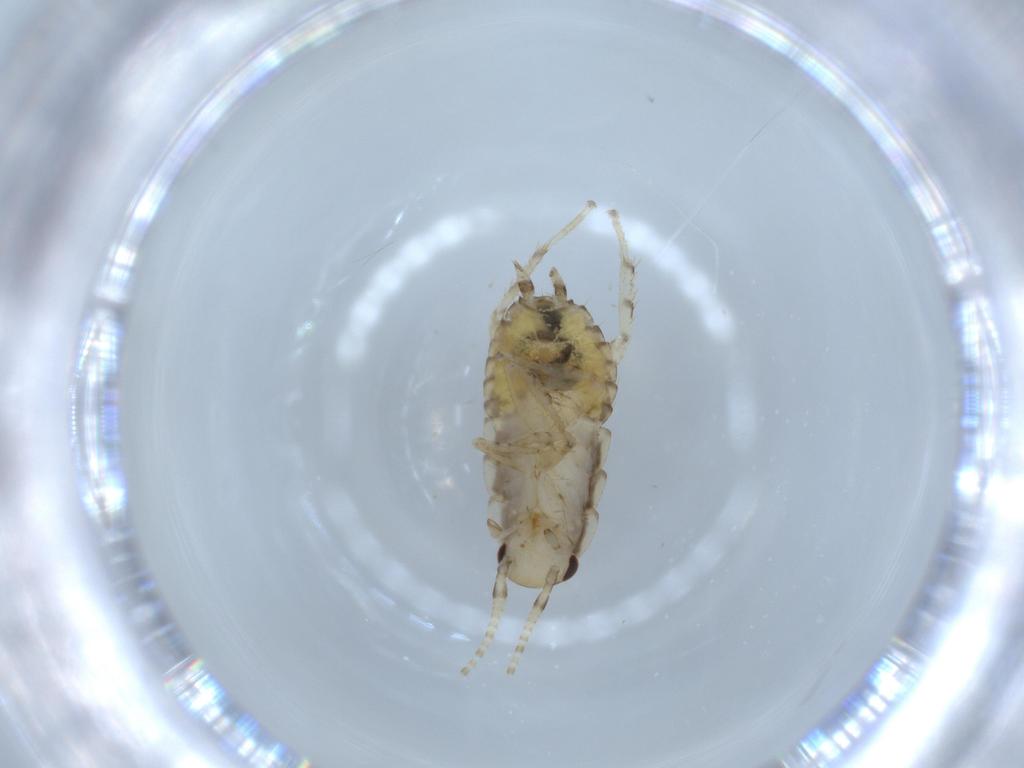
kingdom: Animalia
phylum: Arthropoda
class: Insecta
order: Blattodea
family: Ectobiidae
